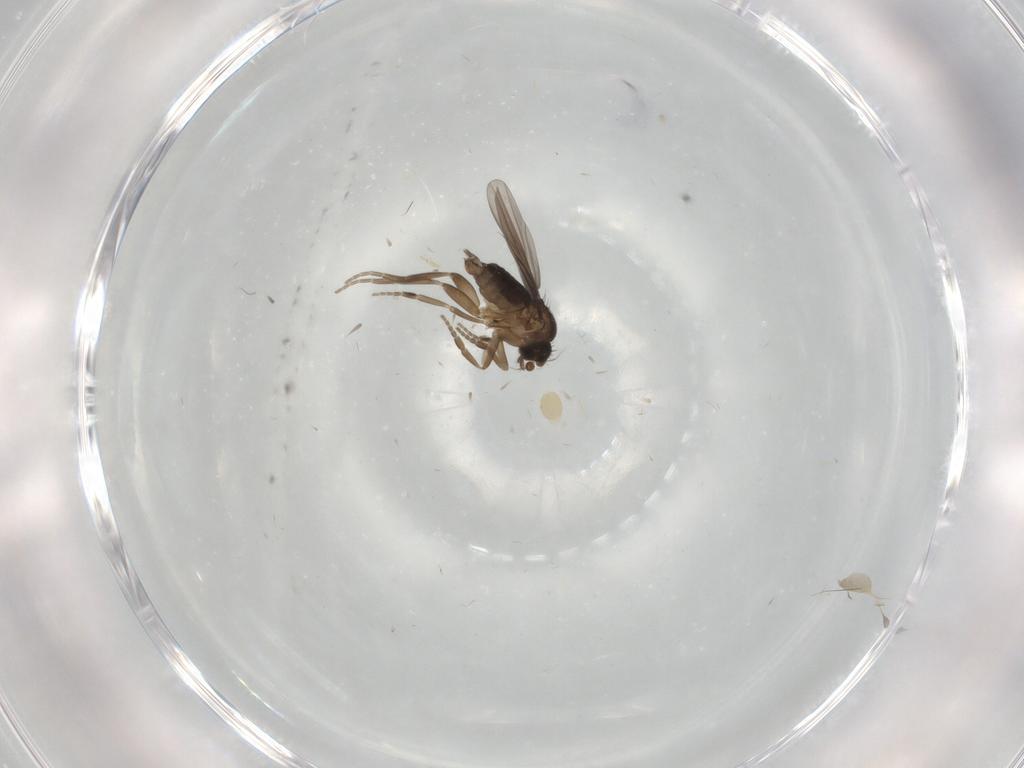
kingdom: Animalia
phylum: Arthropoda
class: Insecta
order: Diptera
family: Phoridae
